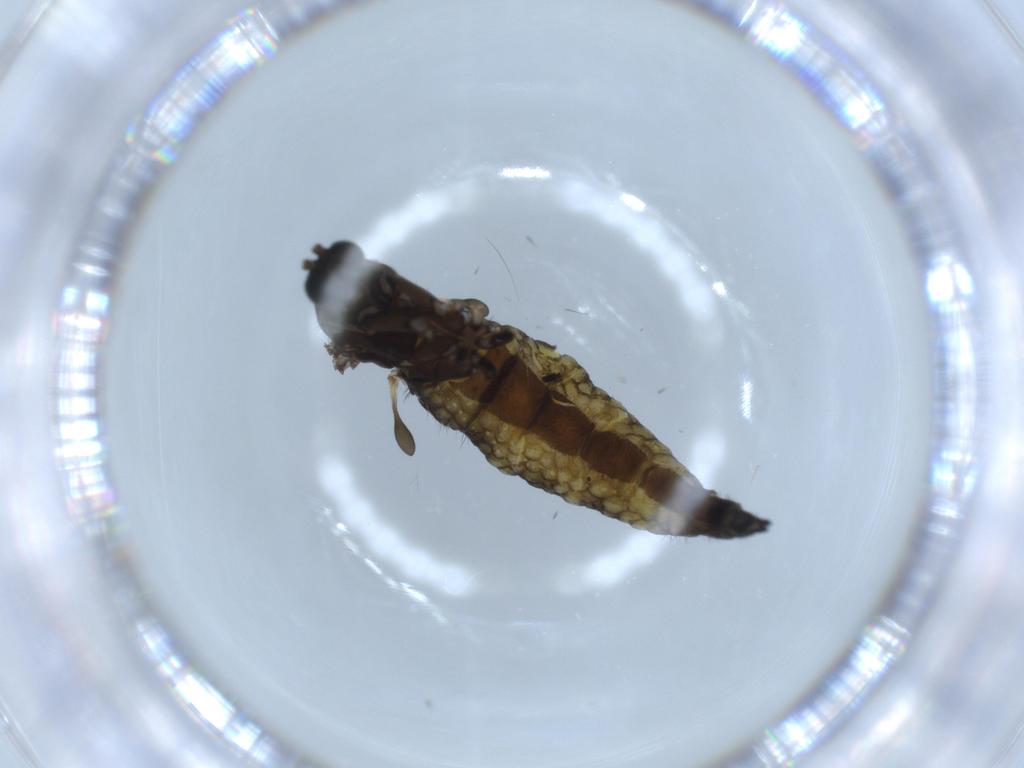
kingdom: Animalia
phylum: Arthropoda
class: Insecta
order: Diptera
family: Sciaridae
